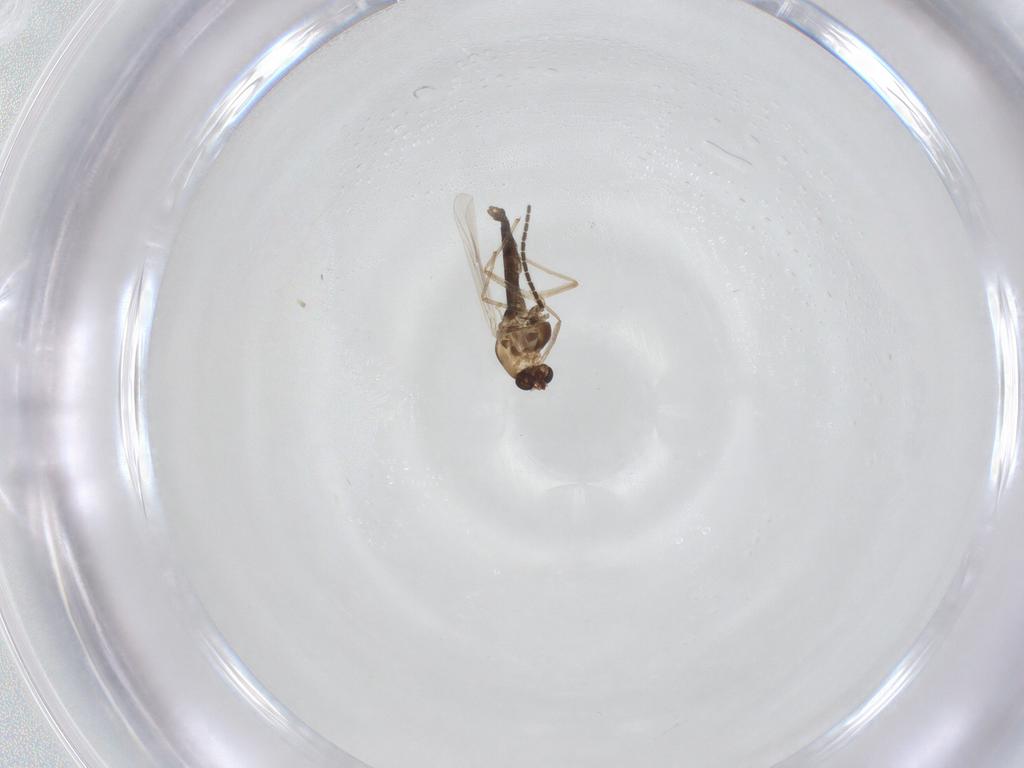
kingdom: Animalia
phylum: Arthropoda
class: Insecta
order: Diptera
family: Chironomidae
